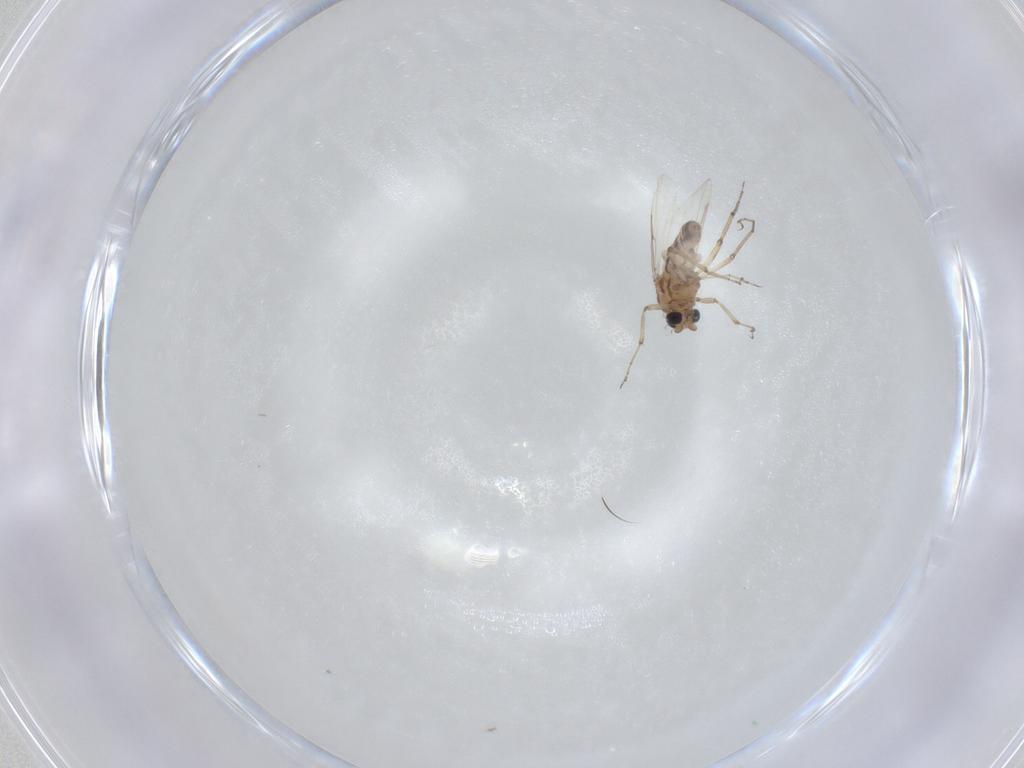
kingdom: Animalia
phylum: Arthropoda
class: Insecta
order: Diptera
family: Ceratopogonidae
